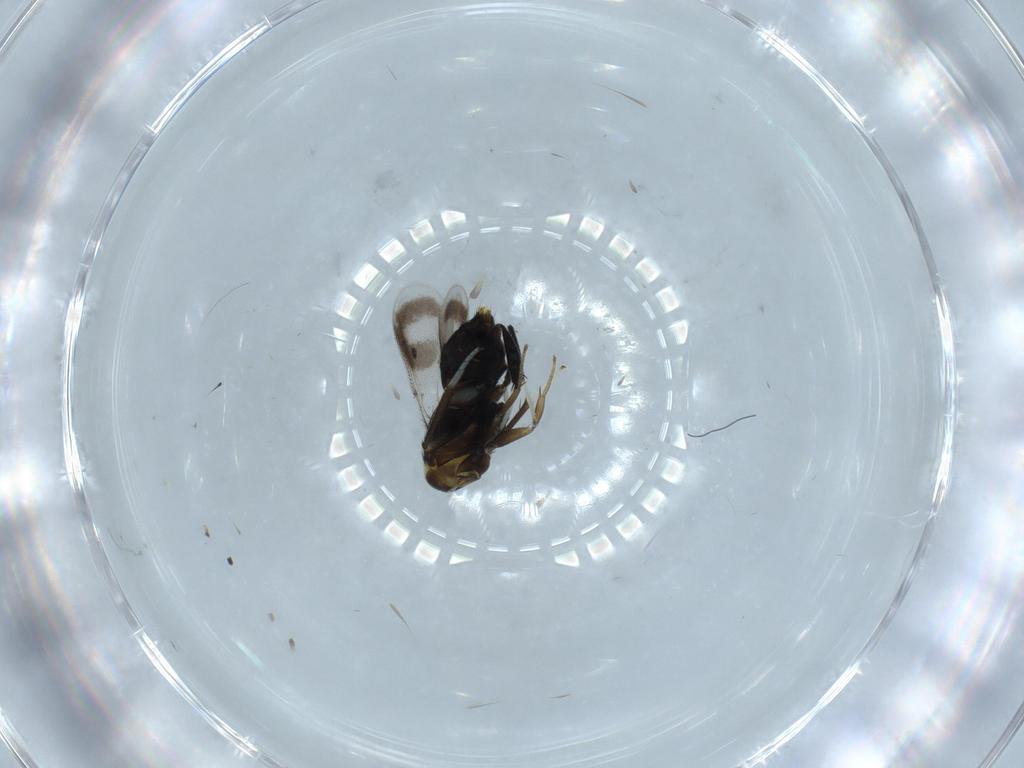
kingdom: Animalia
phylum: Arthropoda
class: Insecta
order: Hymenoptera
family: Aphelinidae
